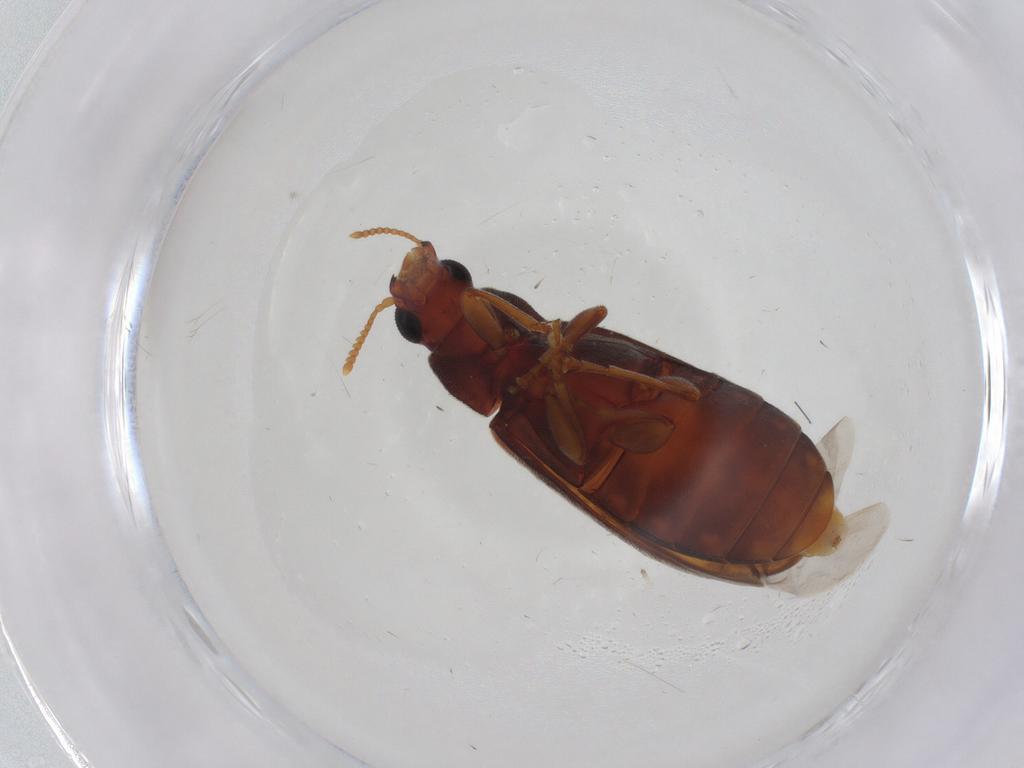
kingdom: Animalia
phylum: Arthropoda
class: Insecta
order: Coleoptera
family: Mycteridae
